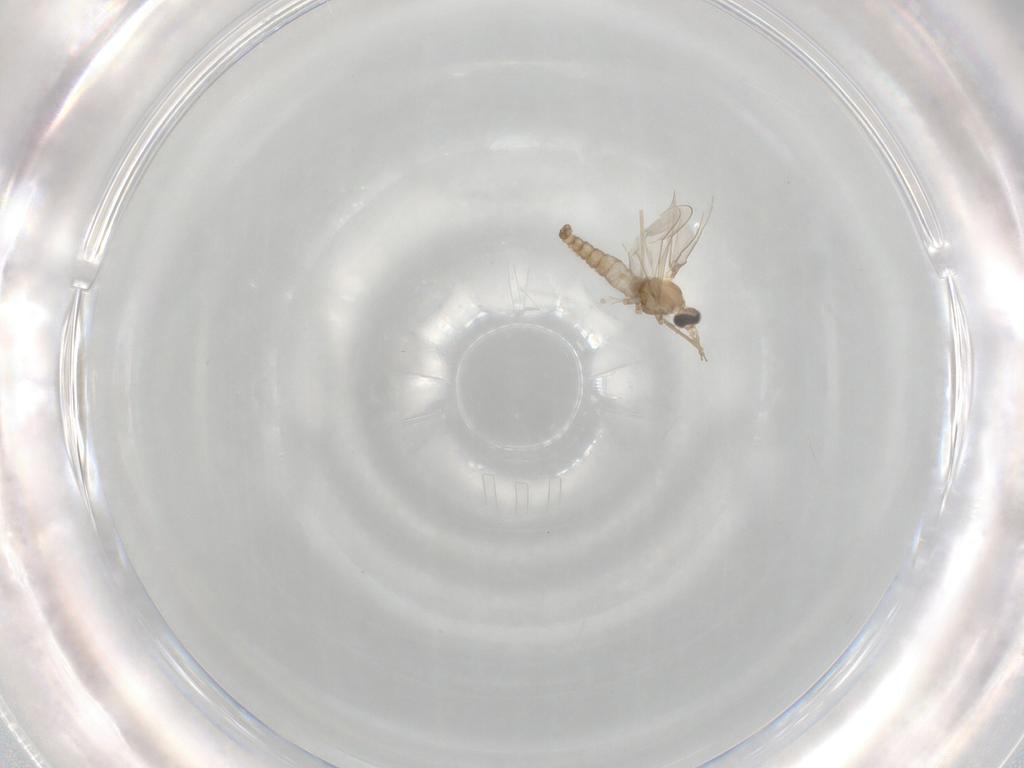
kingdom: Animalia
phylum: Arthropoda
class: Insecta
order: Diptera
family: Cecidomyiidae
